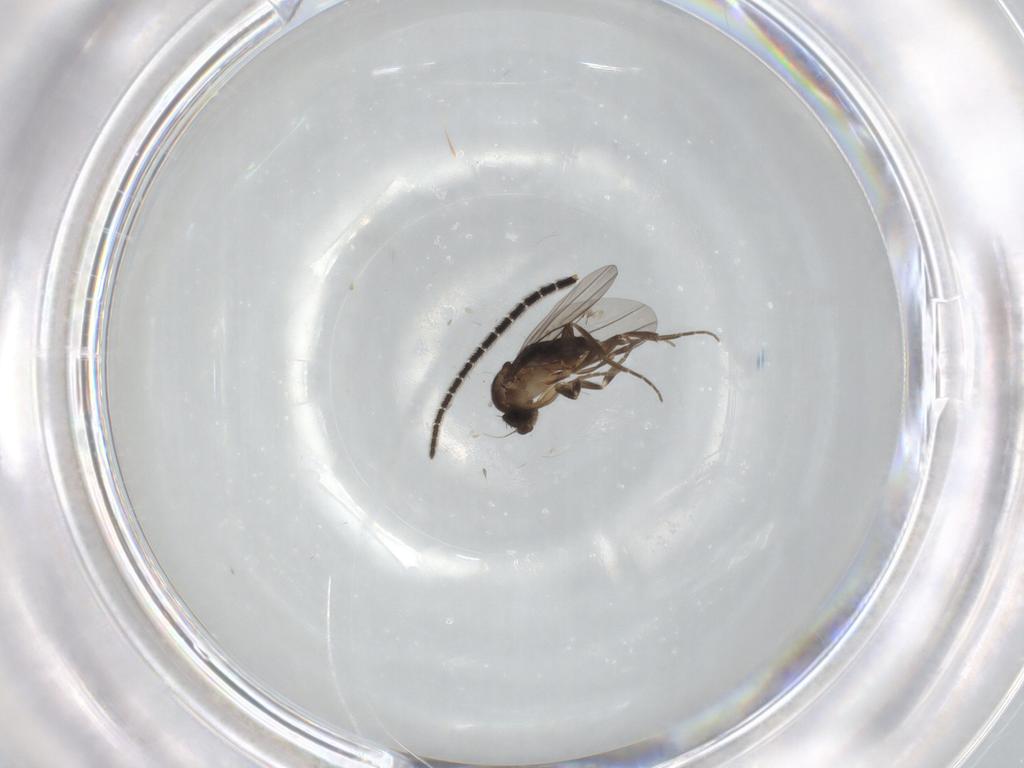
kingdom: Animalia
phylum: Arthropoda
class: Insecta
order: Diptera
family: Sciaridae
